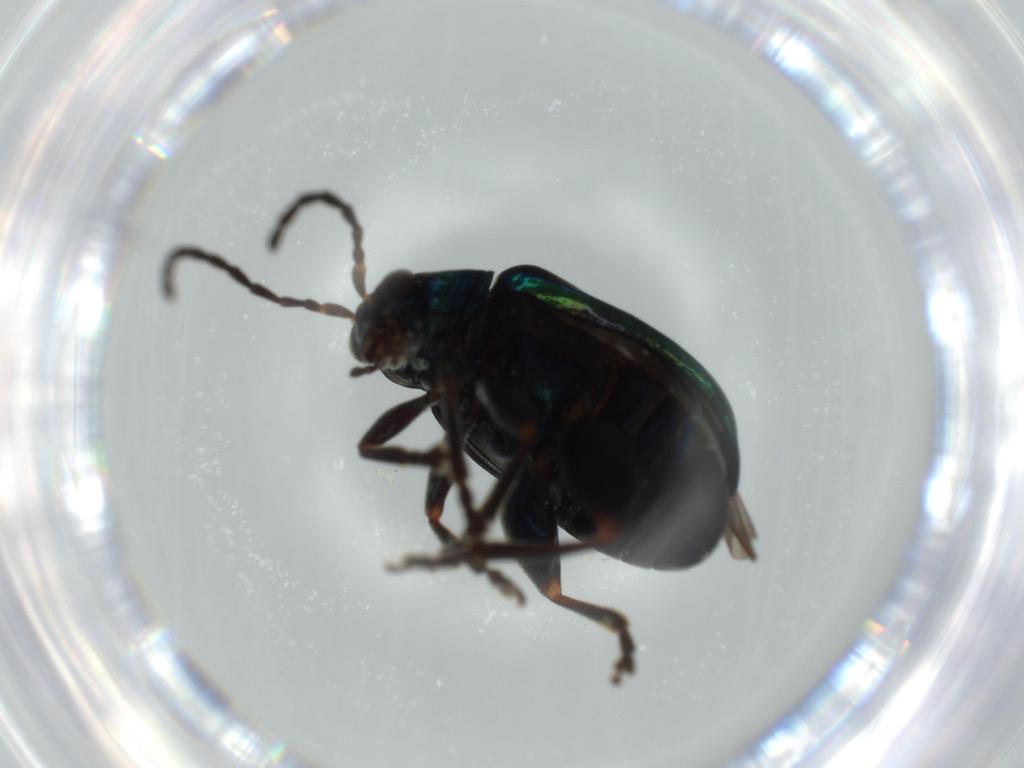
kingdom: Animalia
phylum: Arthropoda
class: Insecta
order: Coleoptera
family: Chrysomelidae
